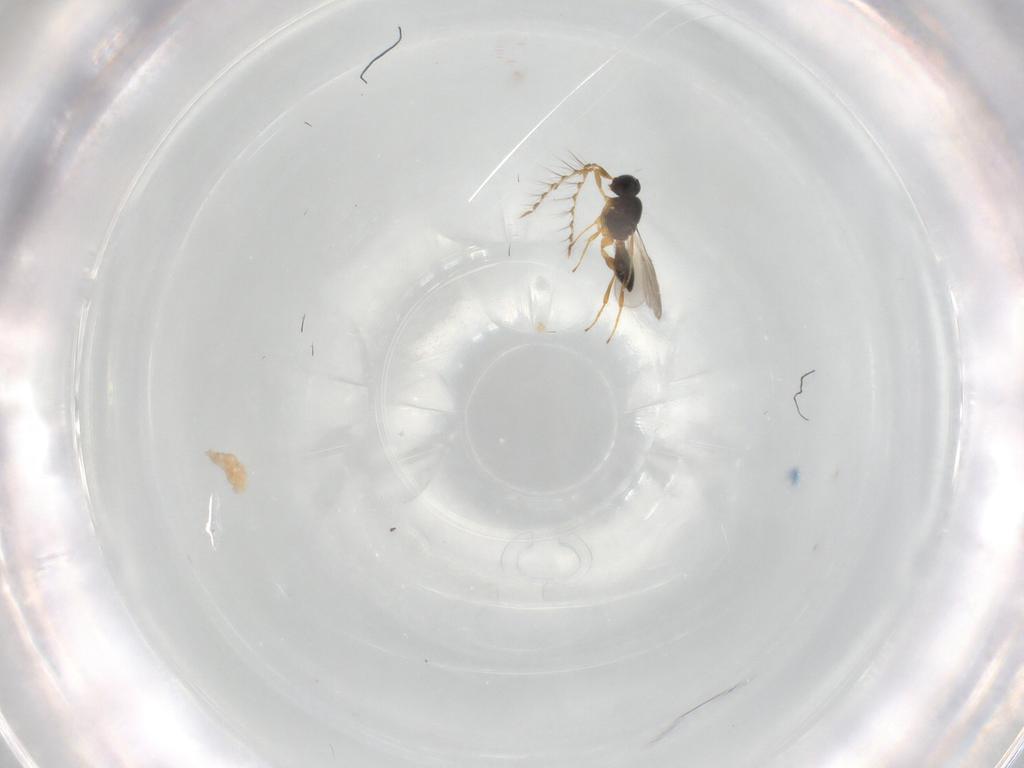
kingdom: Animalia
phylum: Arthropoda
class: Insecta
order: Hymenoptera
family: Platygastridae
